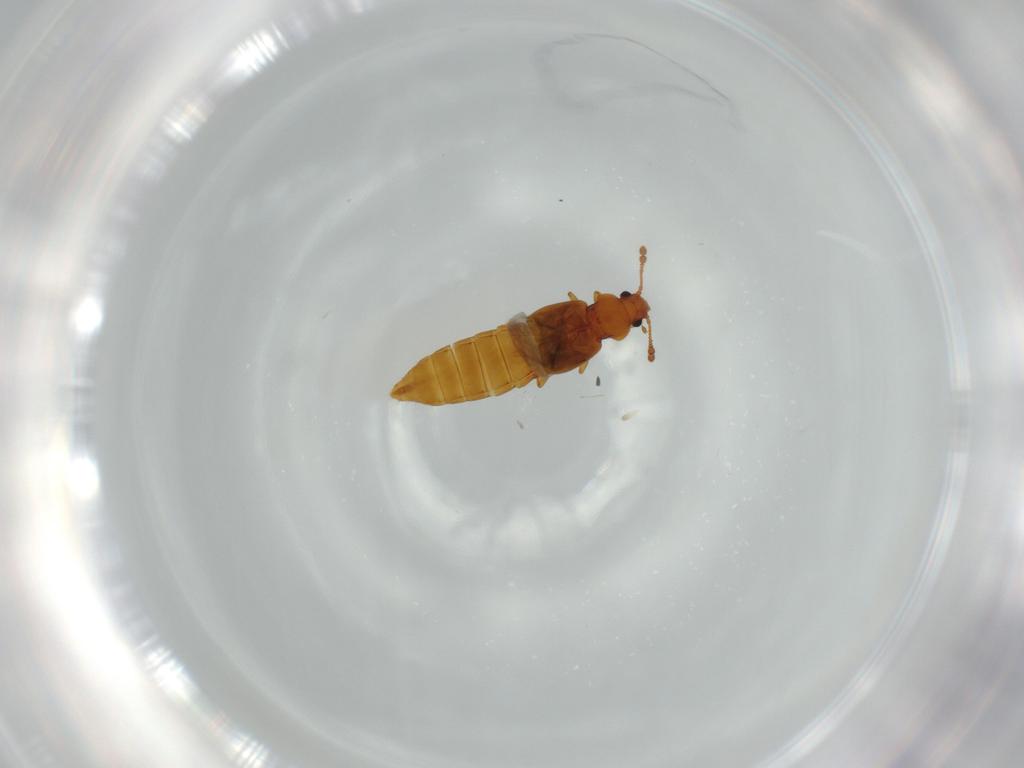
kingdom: Animalia
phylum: Arthropoda
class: Insecta
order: Coleoptera
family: Staphylinidae
